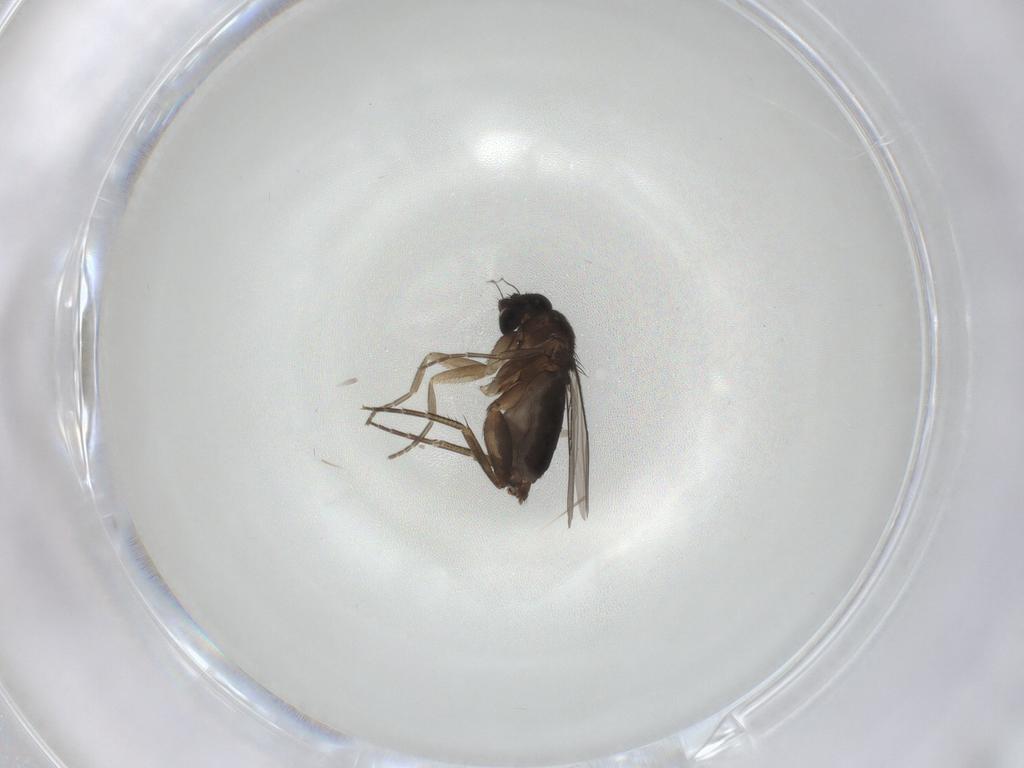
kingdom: Animalia
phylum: Arthropoda
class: Insecta
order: Diptera
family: Phoridae
